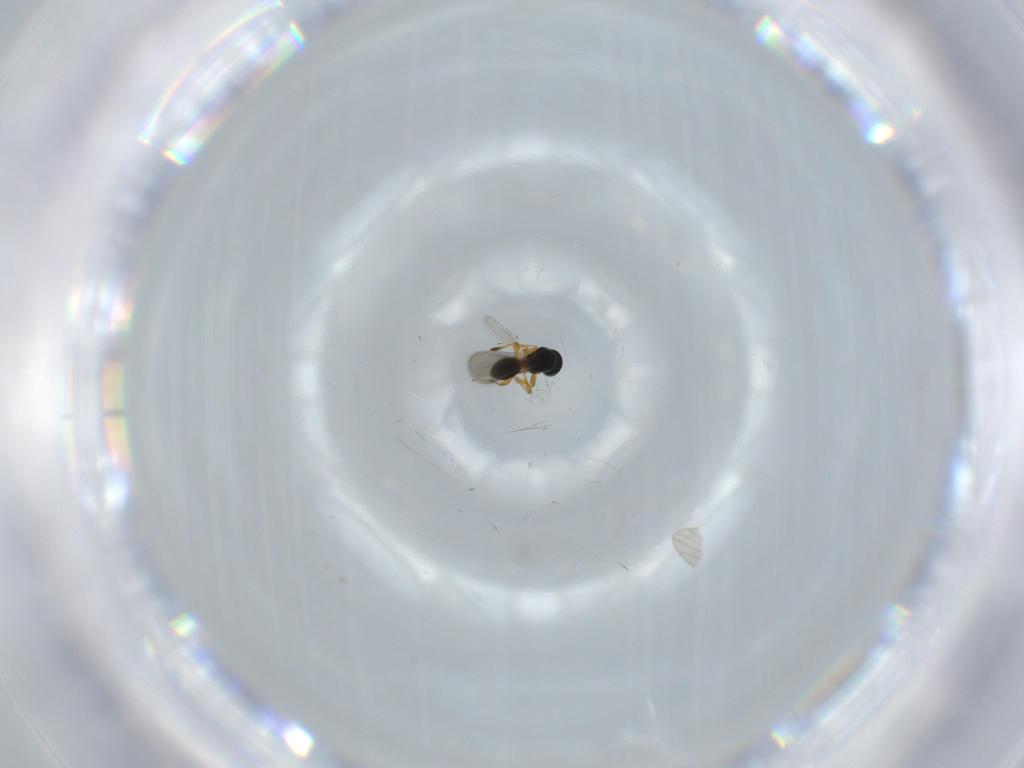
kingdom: Animalia
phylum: Arthropoda
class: Insecta
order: Hymenoptera
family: Platygastridae
